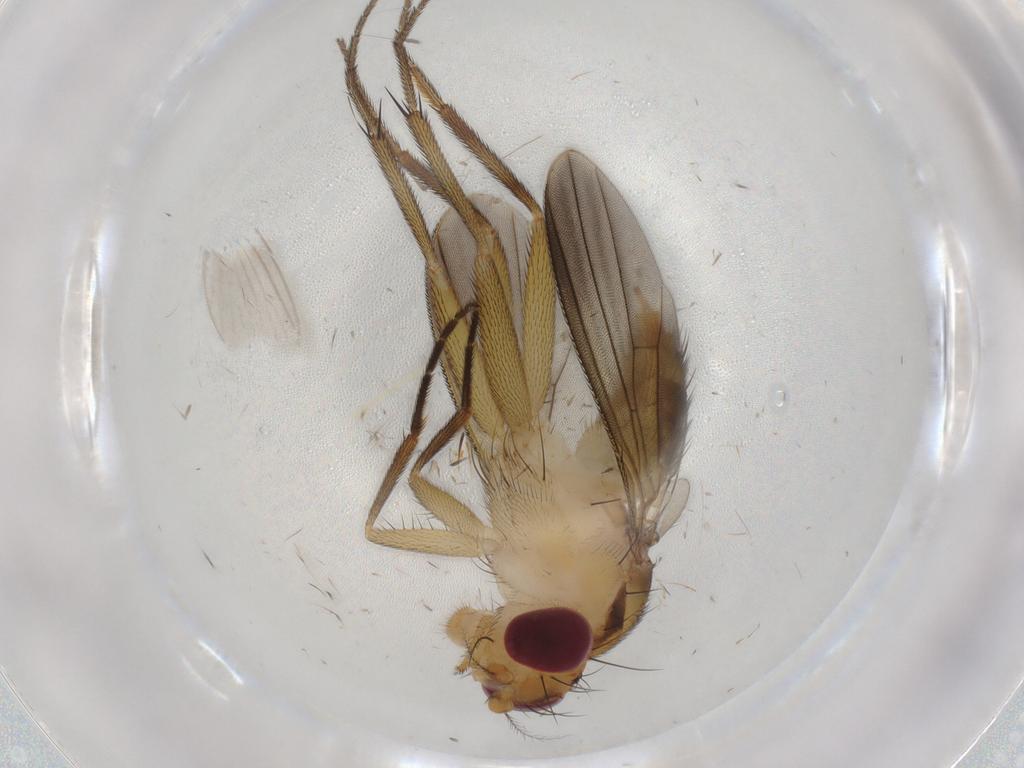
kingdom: Animalia
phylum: Arthropoda
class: Insecta
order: Diptera
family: Clusiidae
